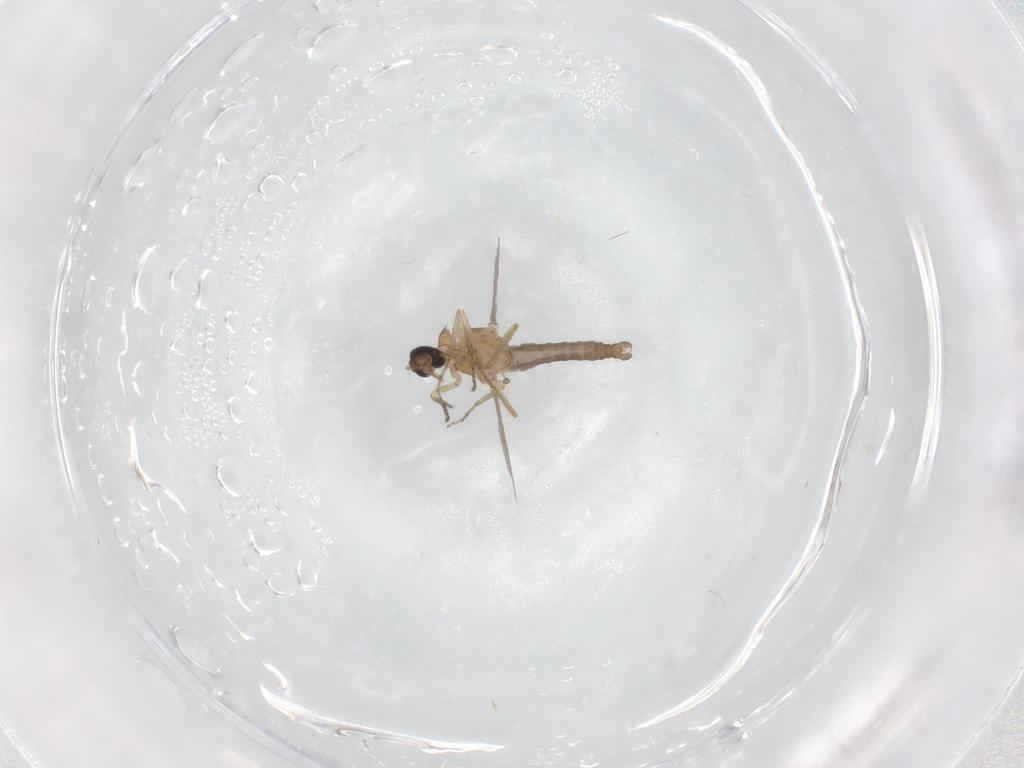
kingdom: Animalia
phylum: Arthropoda
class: Insecta
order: Diptera
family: Ceratopogonidae
